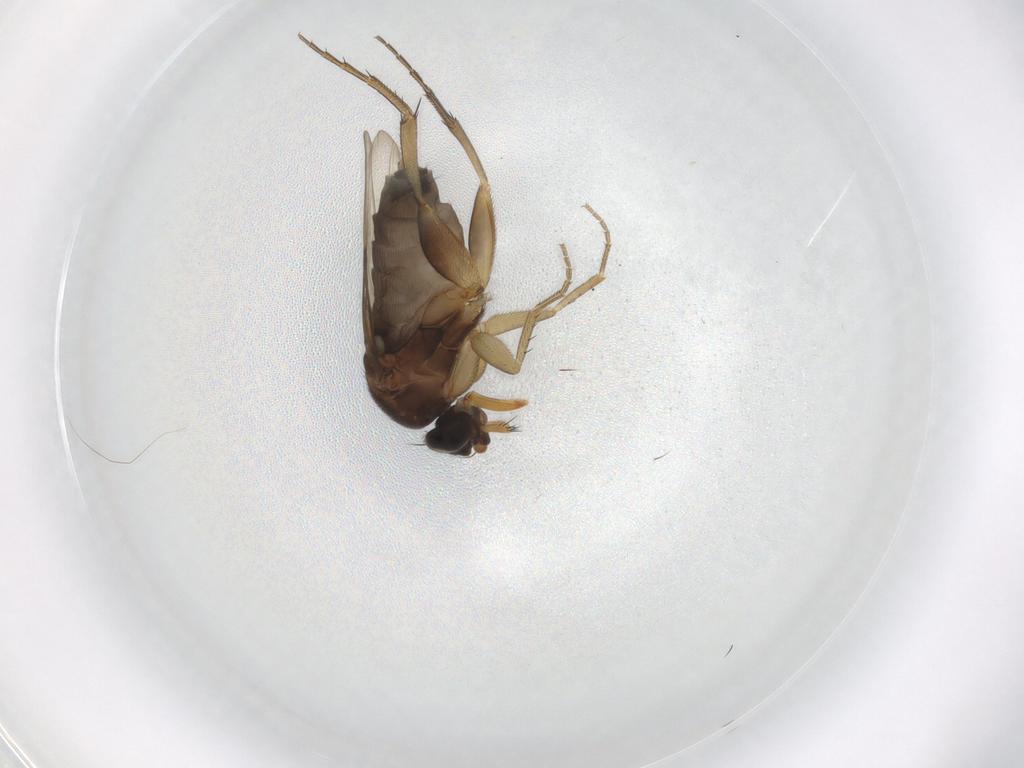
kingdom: Animalia
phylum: Arthropoda
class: Insecta
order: Diptera
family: Phoridae
